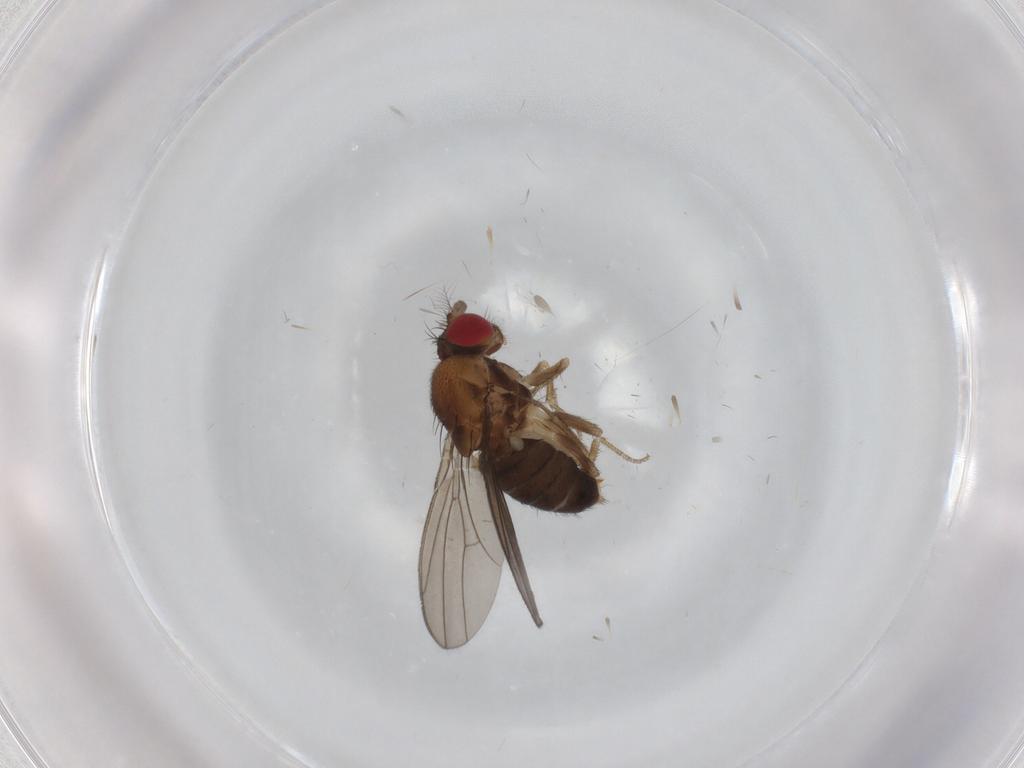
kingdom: Animalia
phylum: Arthropoda
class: Insecta
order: Diptera
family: Drosophilidae
